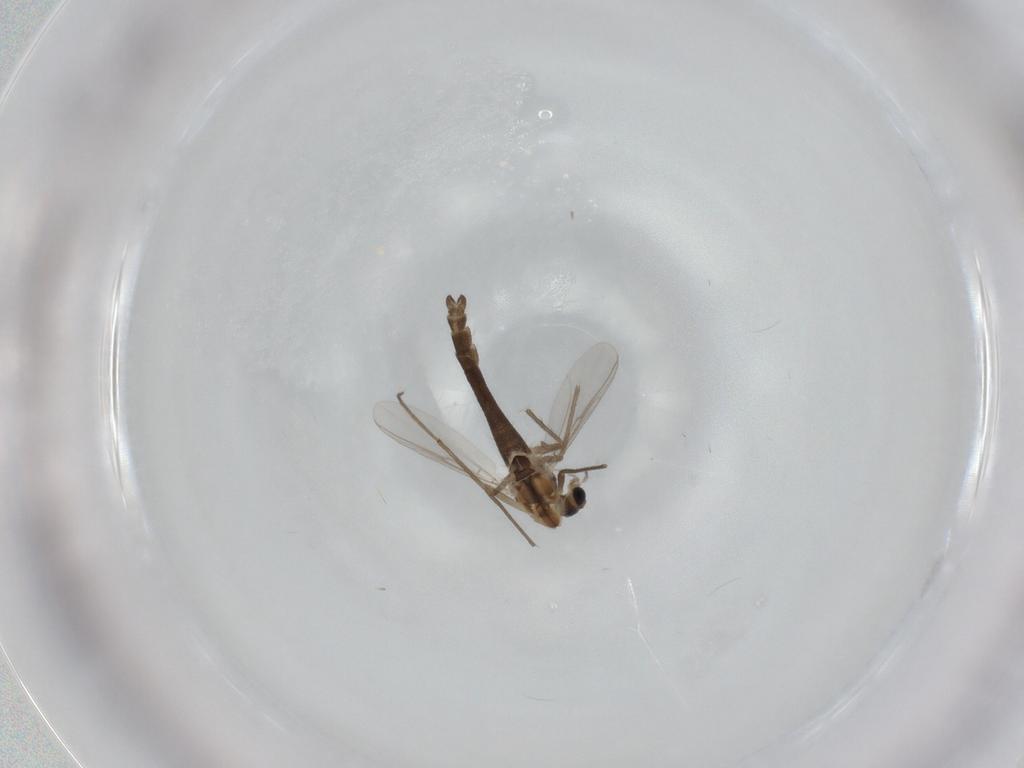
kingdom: Animalia
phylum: Arthropoda
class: Insecta
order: Diptera
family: Chironomidae
